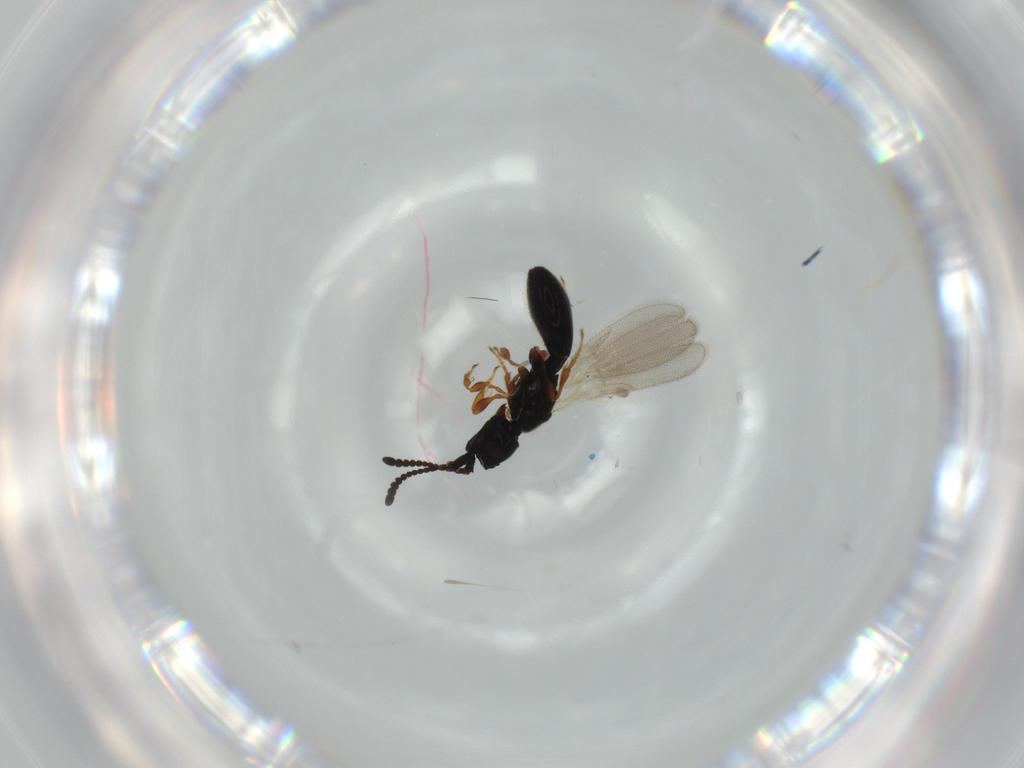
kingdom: Animalia
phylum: Arthropoda
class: Insecta
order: Hymenoptera
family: Diapriidae
